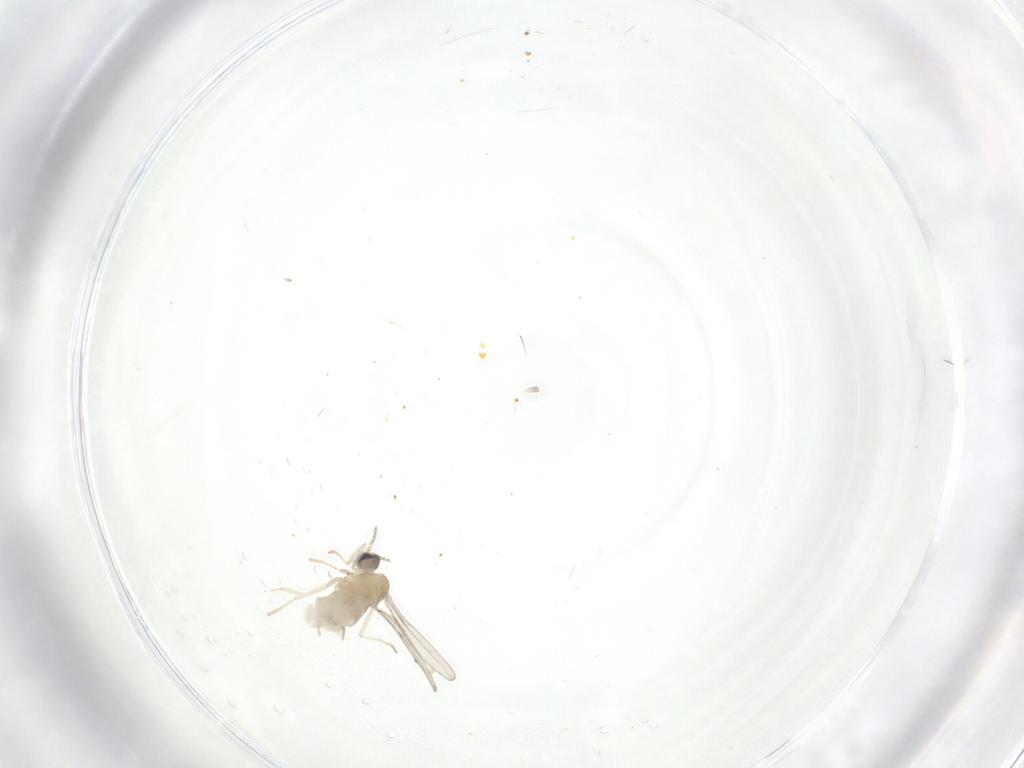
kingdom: Animalia
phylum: Arthropoda
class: Insecta
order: Diptera
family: Cecidomyiidae
